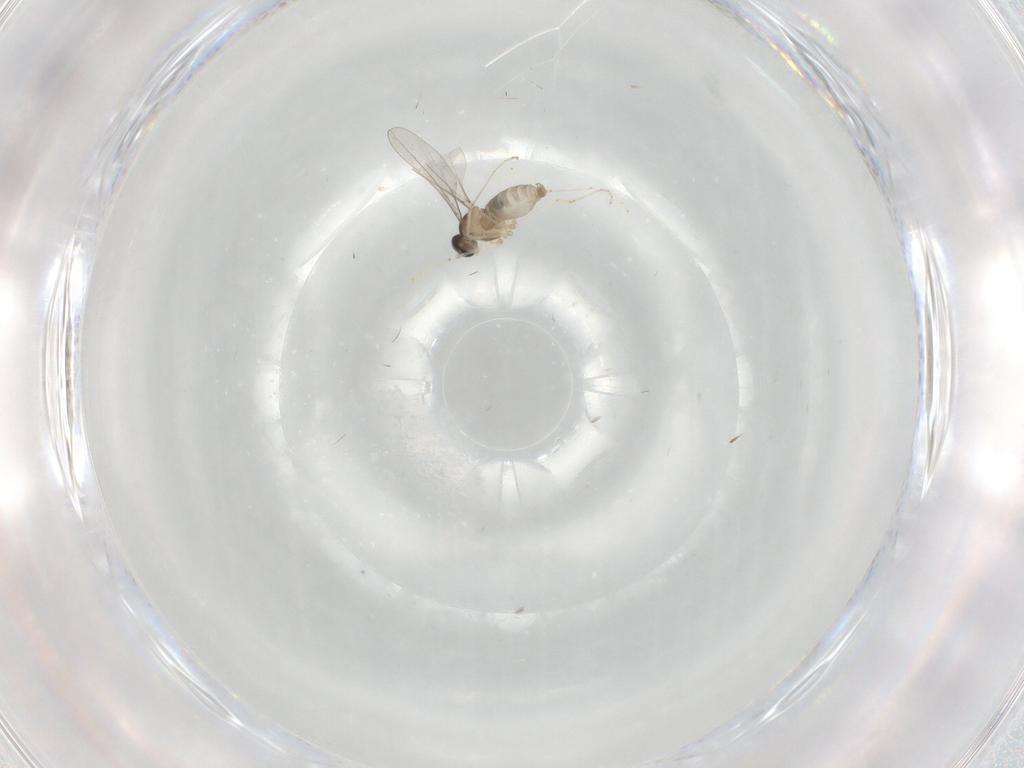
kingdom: Animalia
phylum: Arthropoda
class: Insecta
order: Diptera
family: Cecidomyiidae
